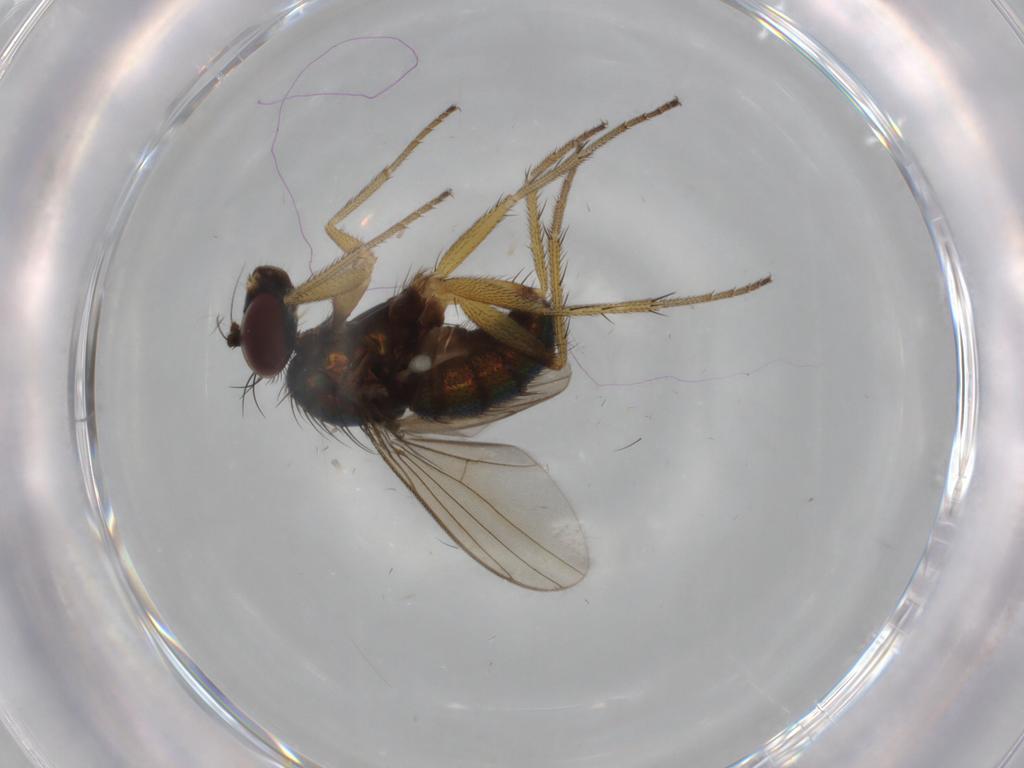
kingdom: Animalia
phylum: Arthropoda
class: Insecta
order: Diptera
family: Dolichopodidae
